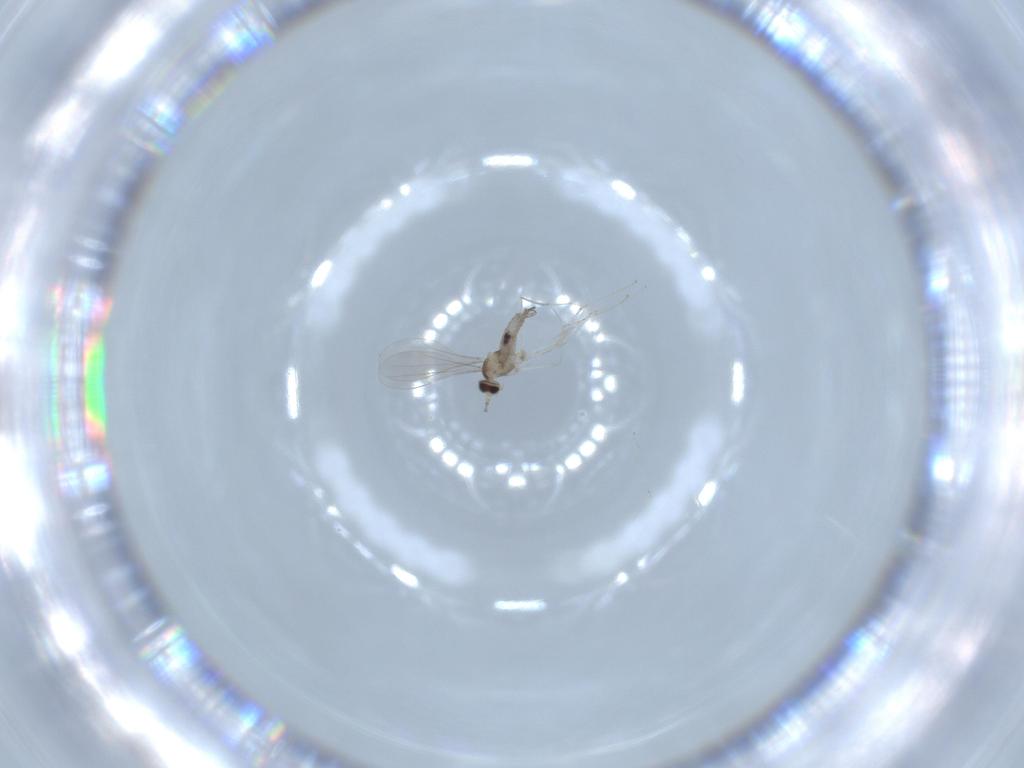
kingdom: Animalia
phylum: Arthropoda
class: Insecta
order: Diptera
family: Cecidomyiidae
